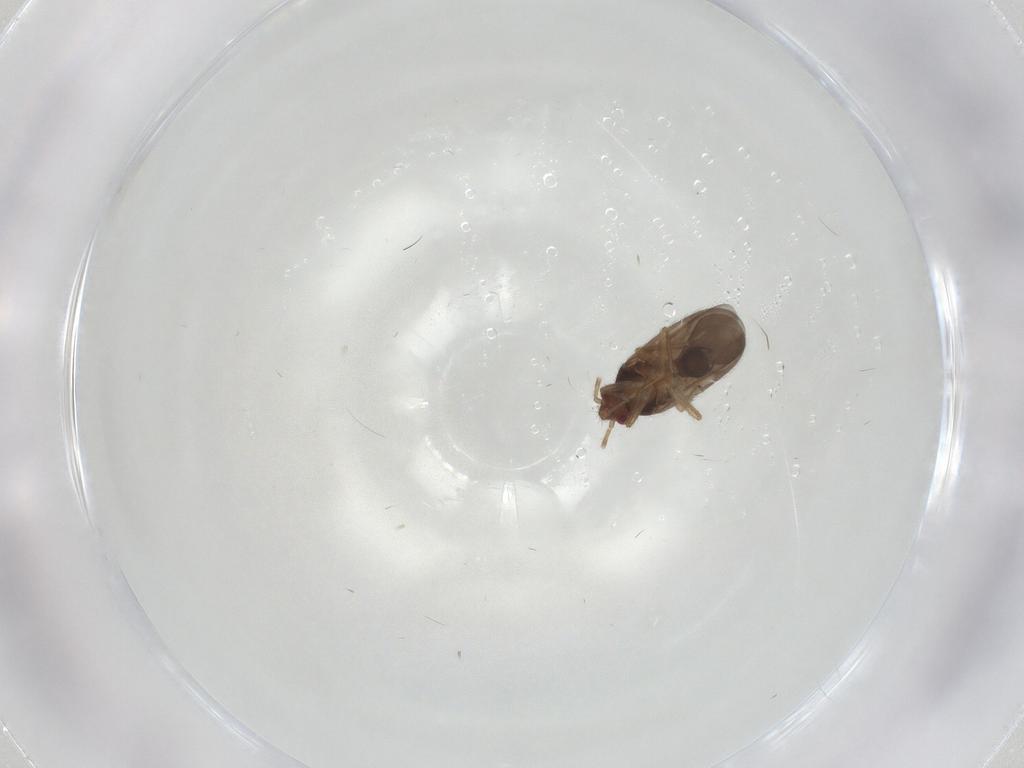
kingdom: Animalia
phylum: Arthropoda
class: Insecta
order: Hemiptera
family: Ceratocombidae
